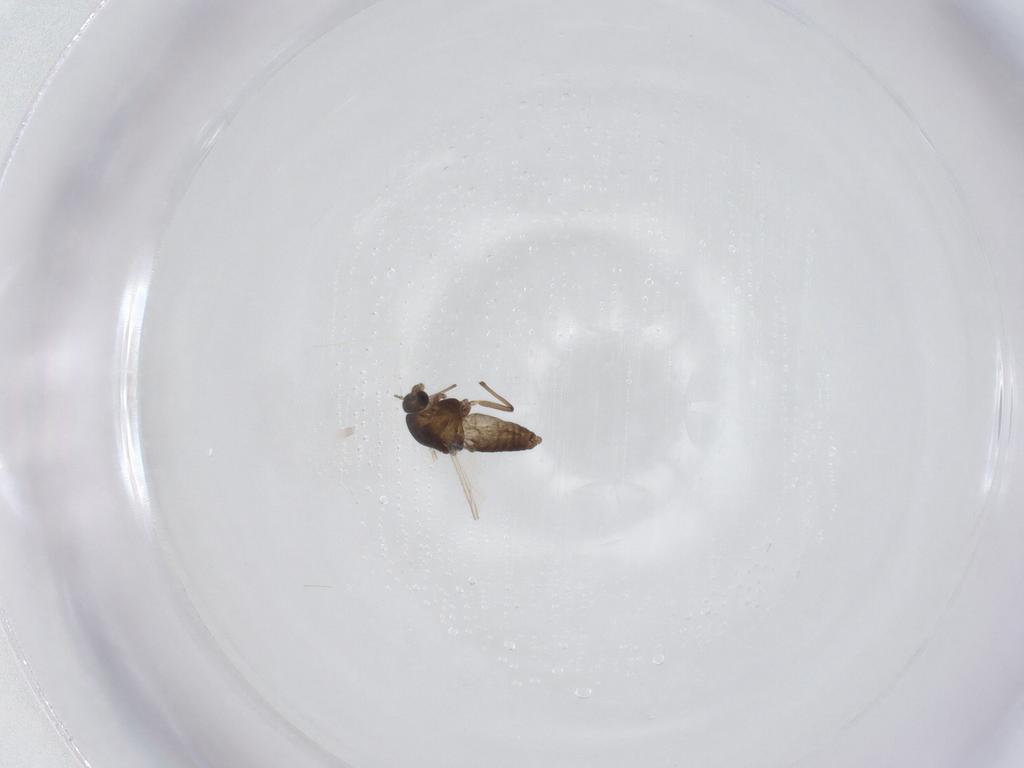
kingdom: Animalia
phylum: Arthropoda
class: Insecta
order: Diptera
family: Chironomidae
